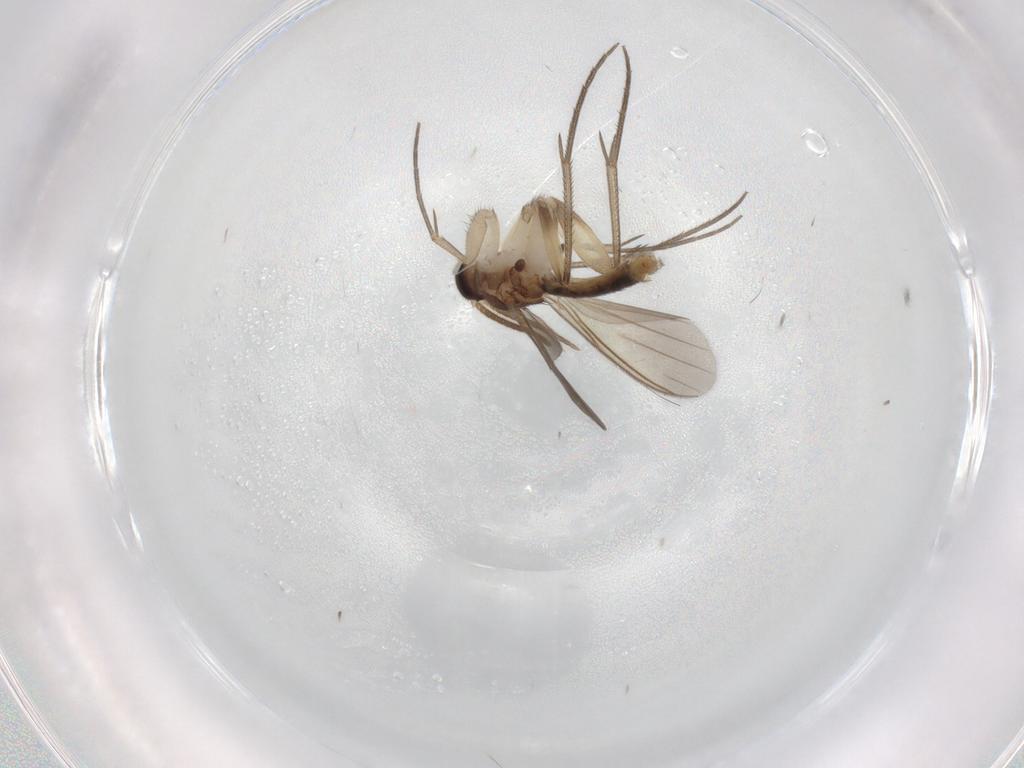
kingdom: Animalia
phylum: Arthropoda
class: Insecta
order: Diptera
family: Mycetophilidae
